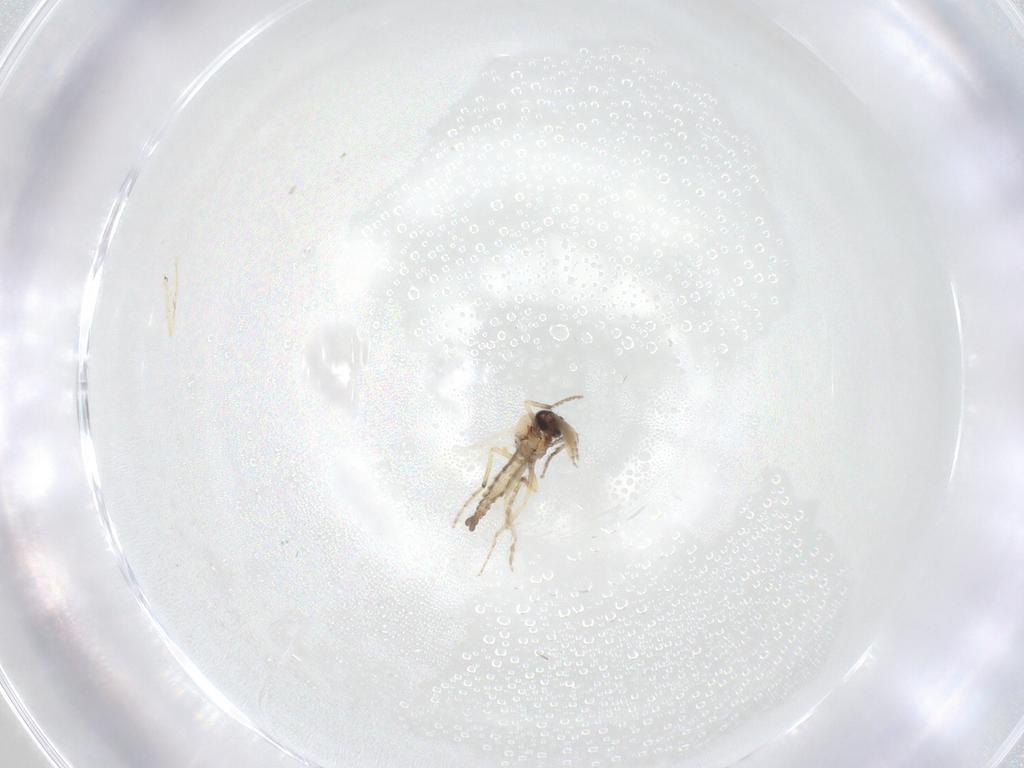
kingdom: Animalia
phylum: Arthropoda
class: Insecta
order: Diptera
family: Ceratopogonidae
